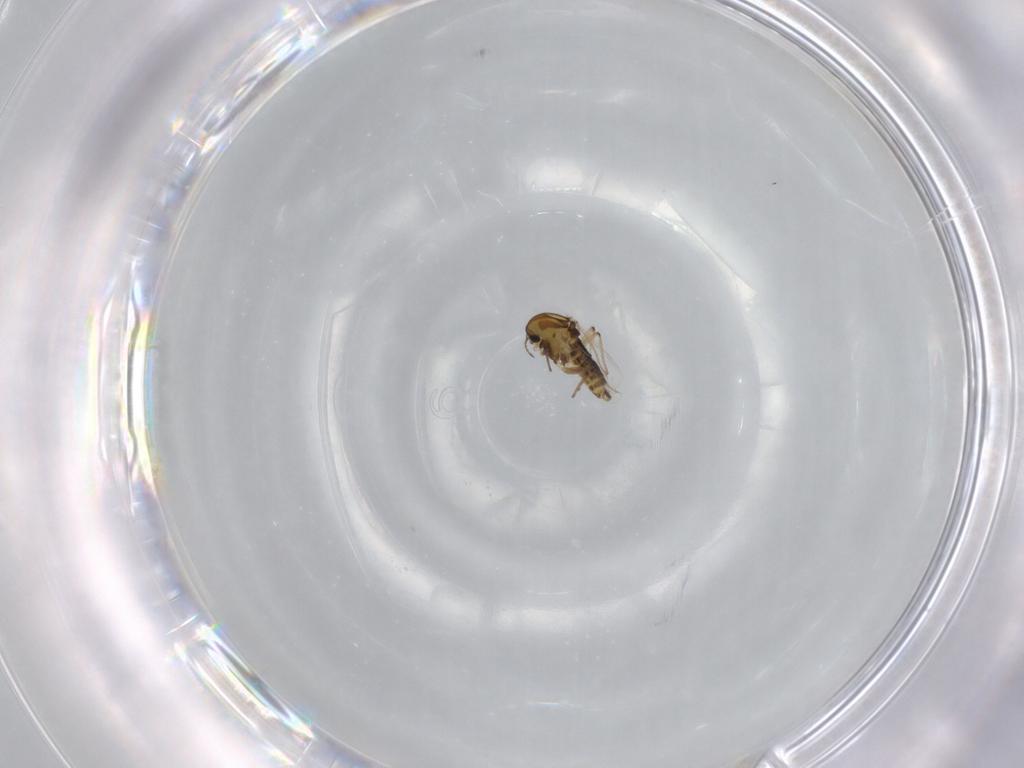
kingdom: Animalia
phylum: Arthropoda
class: Insecta
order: Diptera
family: Phoridae
